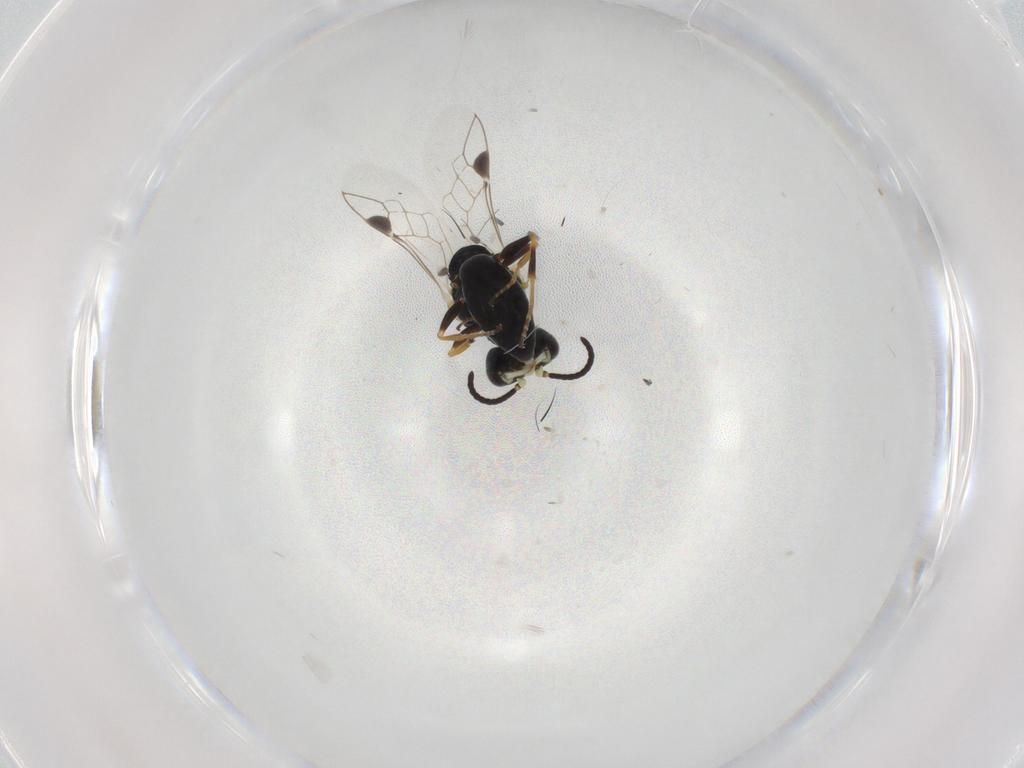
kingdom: Animalia
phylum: Arthropoda
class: Insecta
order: Hymenoptera
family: Crabronidae
